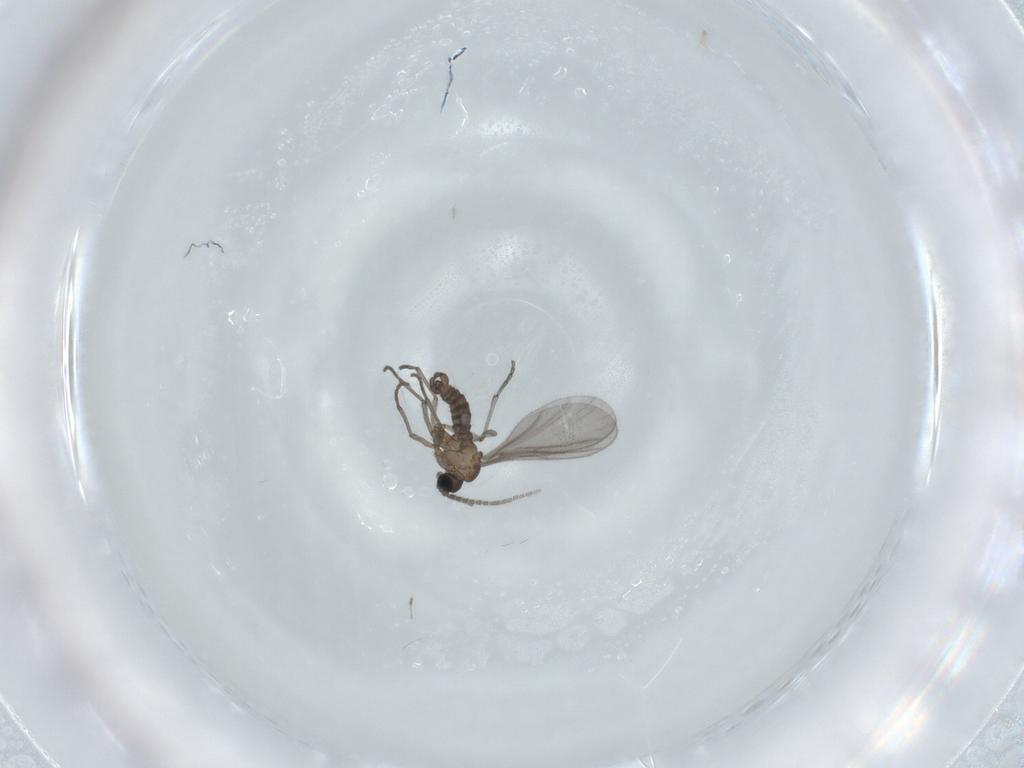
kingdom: Animalia
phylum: Arthropoda
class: Insecta
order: Diptera
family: Sciaridae
